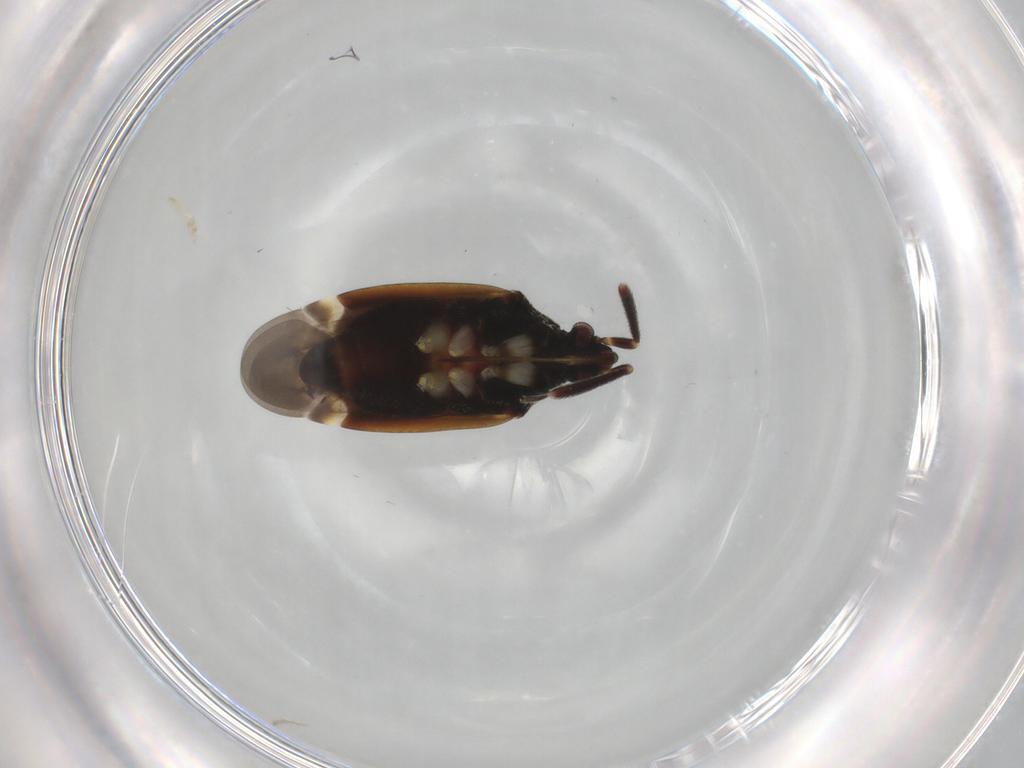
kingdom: Animalia
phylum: Arthropoda
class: Insecta
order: Hemiptera
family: Miridae
